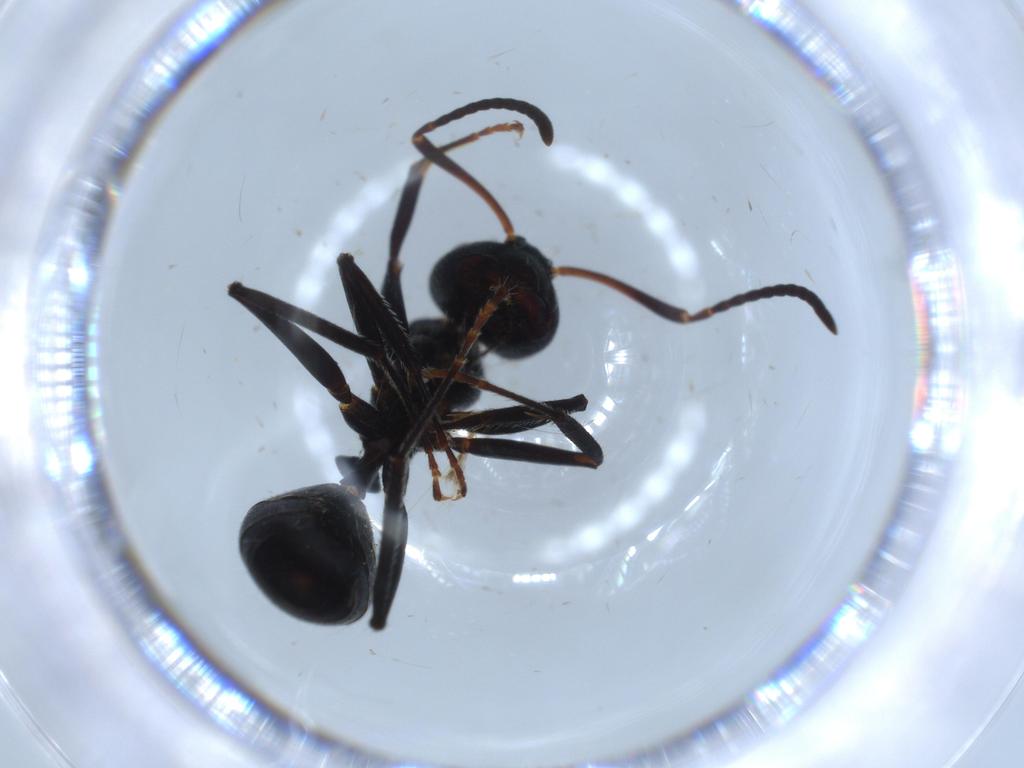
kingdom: Animalia
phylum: Arthropoda
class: Insecta
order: Hymenoptera
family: Formicidae
